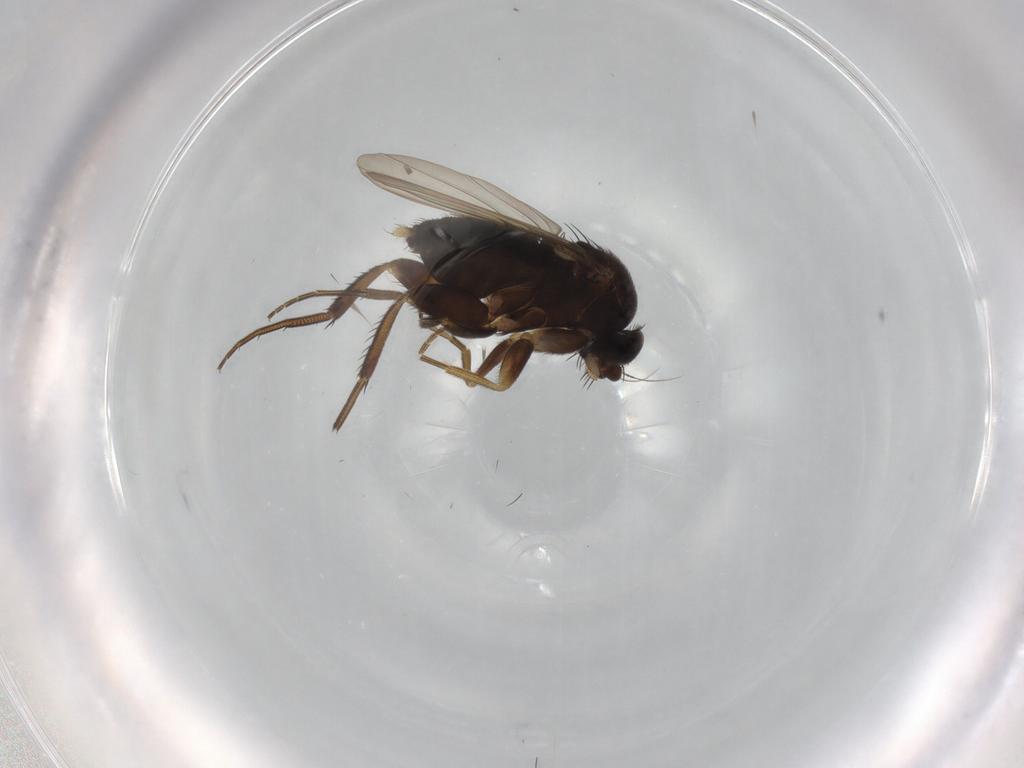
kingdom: Animalia
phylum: Arthropoda
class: Insecta
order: Diptera
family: Phoridae
